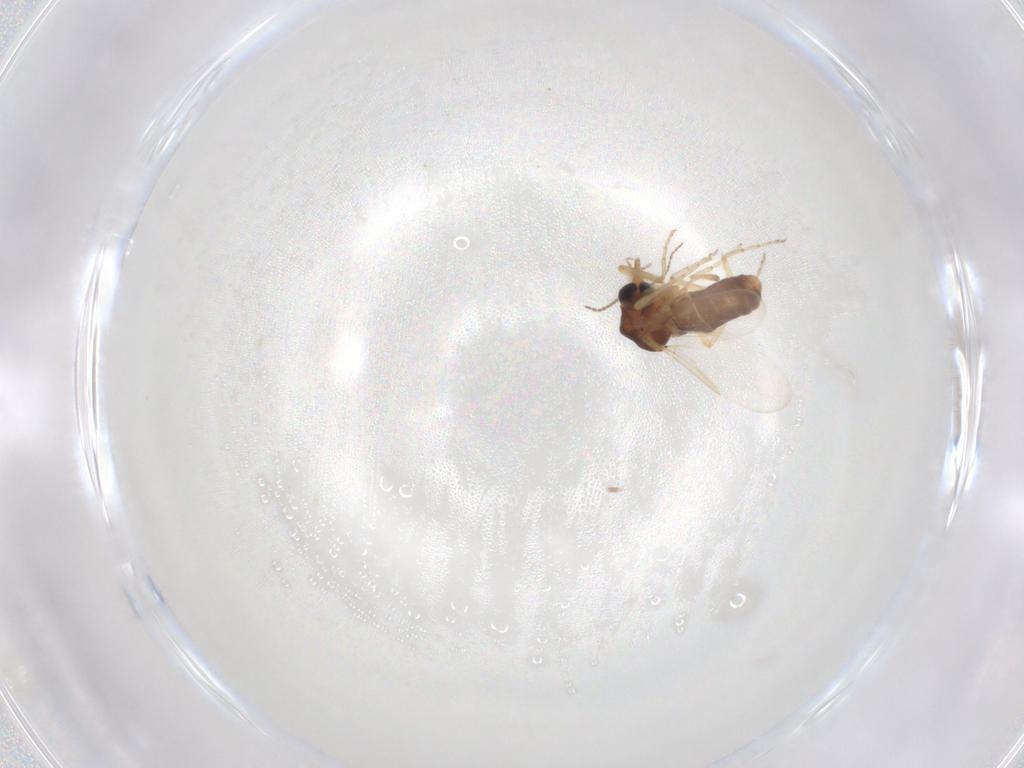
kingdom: Animalia
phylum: Arthropoda
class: Insecta
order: Diptera
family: Ceratopogonidae
